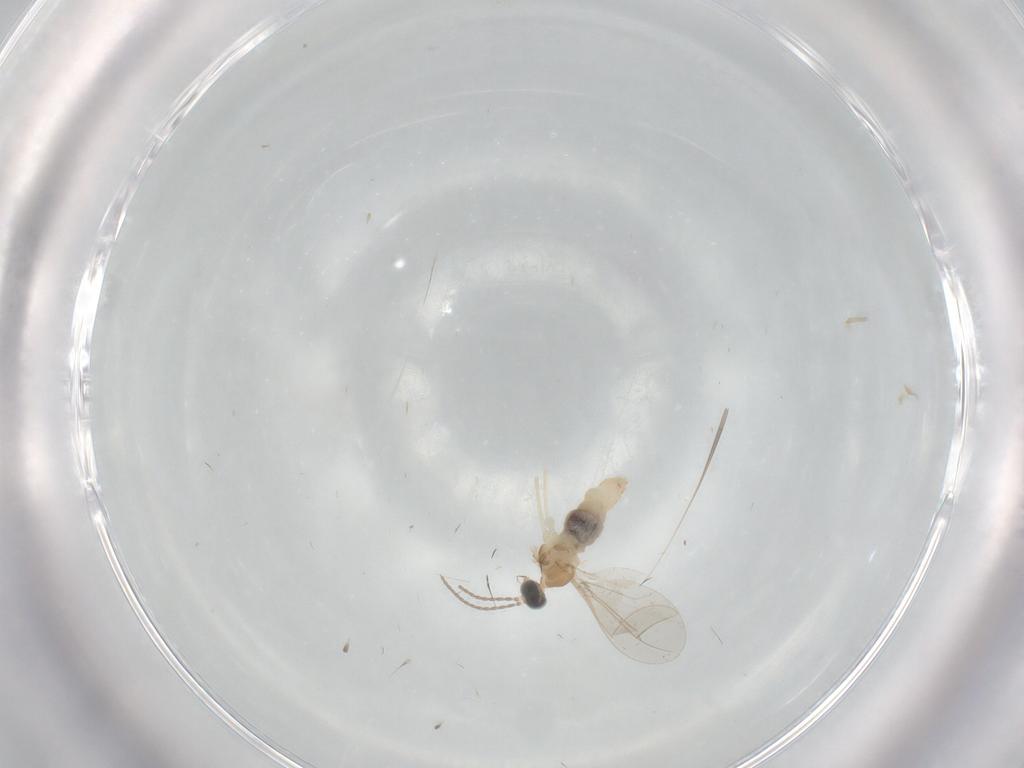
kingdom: Animalia
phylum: Arthropoda
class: Insecta
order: Diptera
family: Cecidomyiidae
